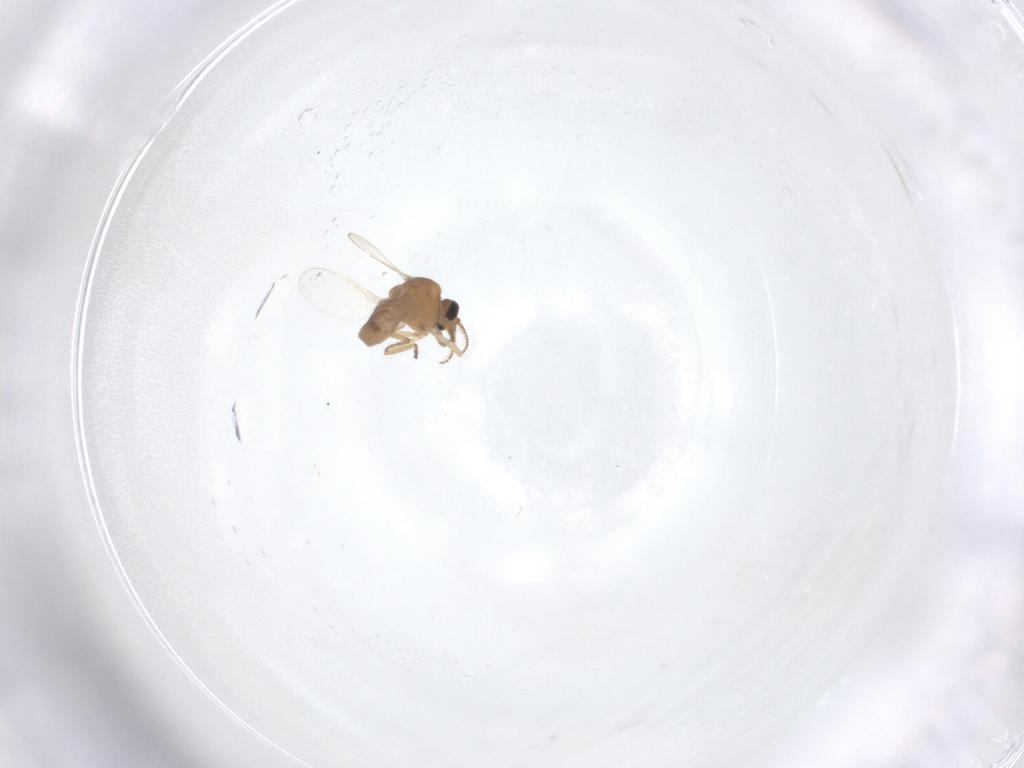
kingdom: Animalia
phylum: Arthropoda
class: Insecta
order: Diptera
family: Ceratopogonidae
